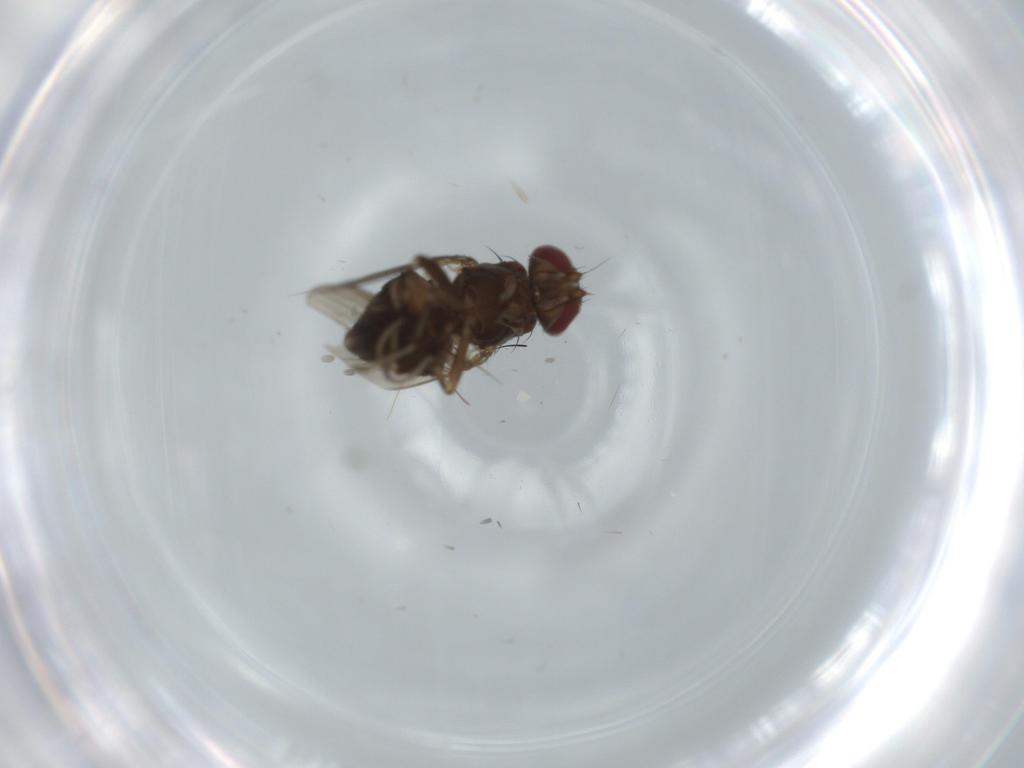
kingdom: Animalia
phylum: Arthropoda
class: Insecta
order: Diptera
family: Heleomyzidae
